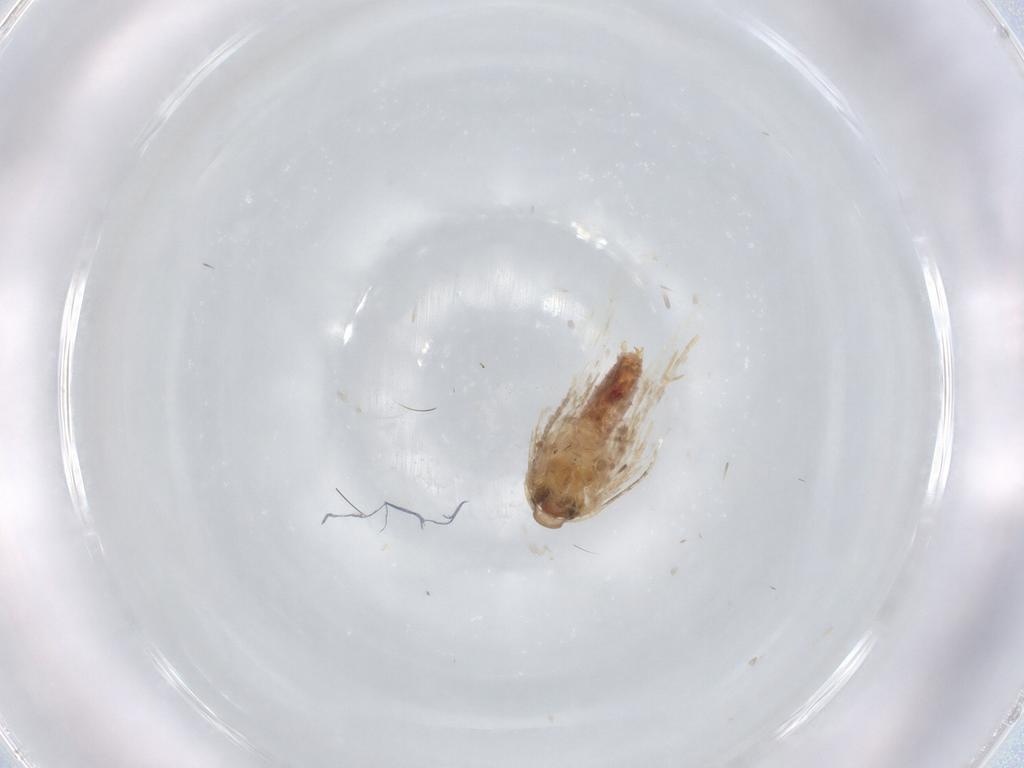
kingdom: Animalia
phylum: Arthropoda
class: Insecta
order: Lepidoptera
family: Cosmopterigidae
